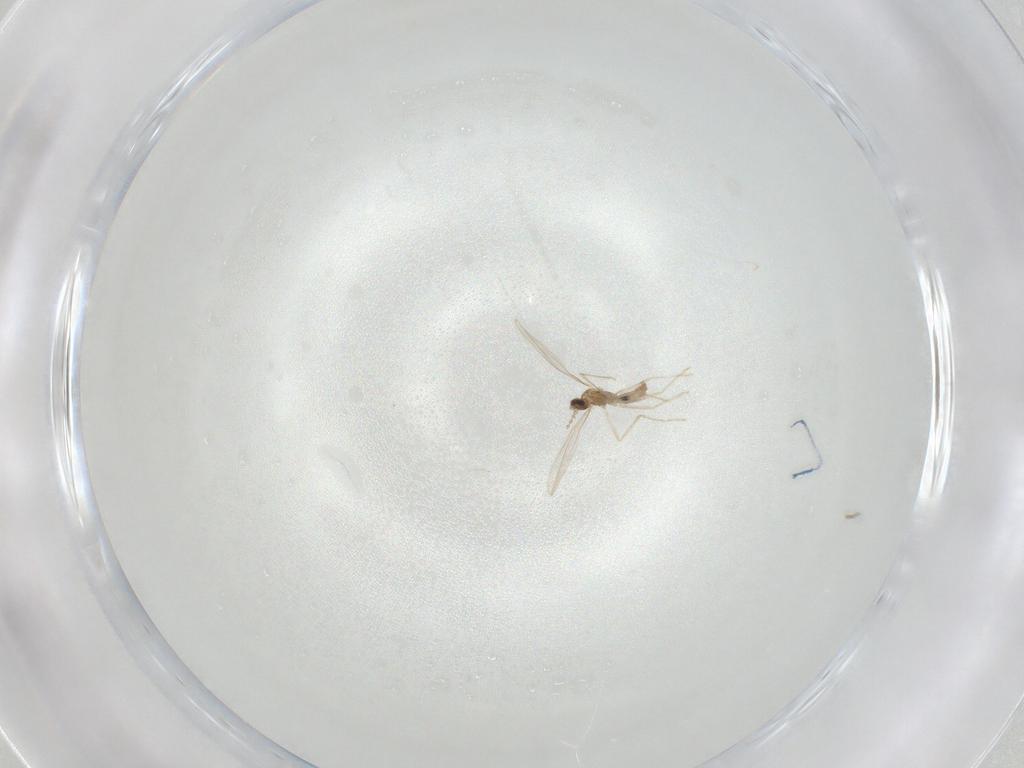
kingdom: Animalia
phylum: Arthropoda
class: Insecta
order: Diptera
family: Cecidomyiidae
